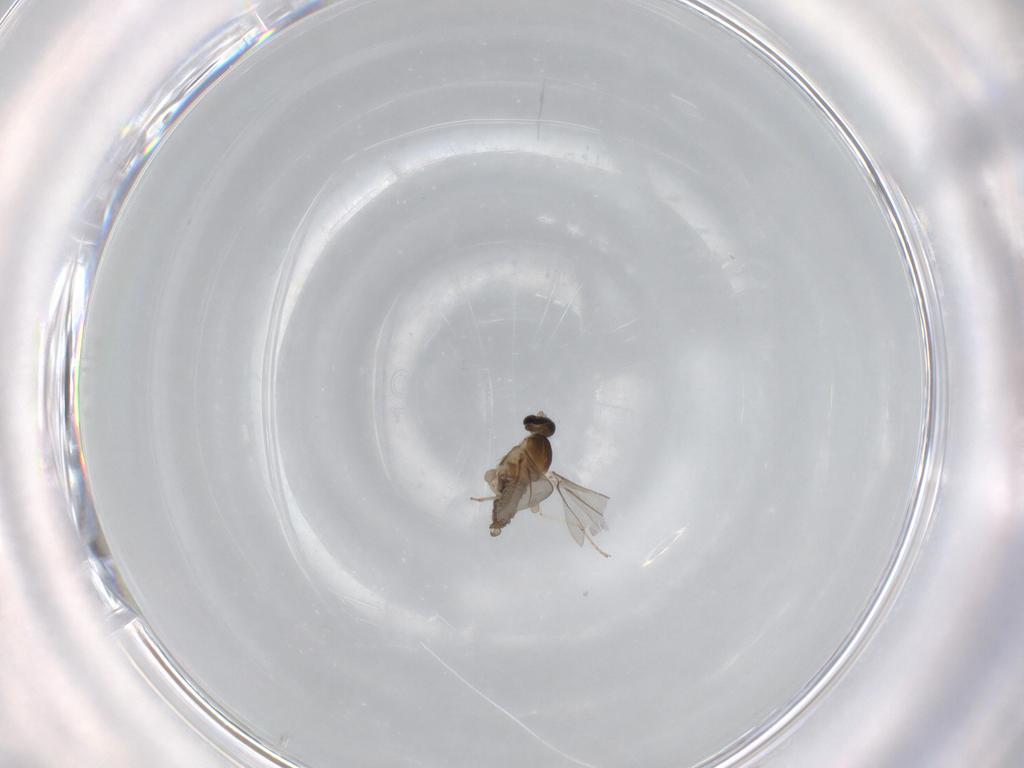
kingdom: Animalia
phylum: Arthropoda
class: Insecta
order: Diptera
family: Cecidomyiidae
